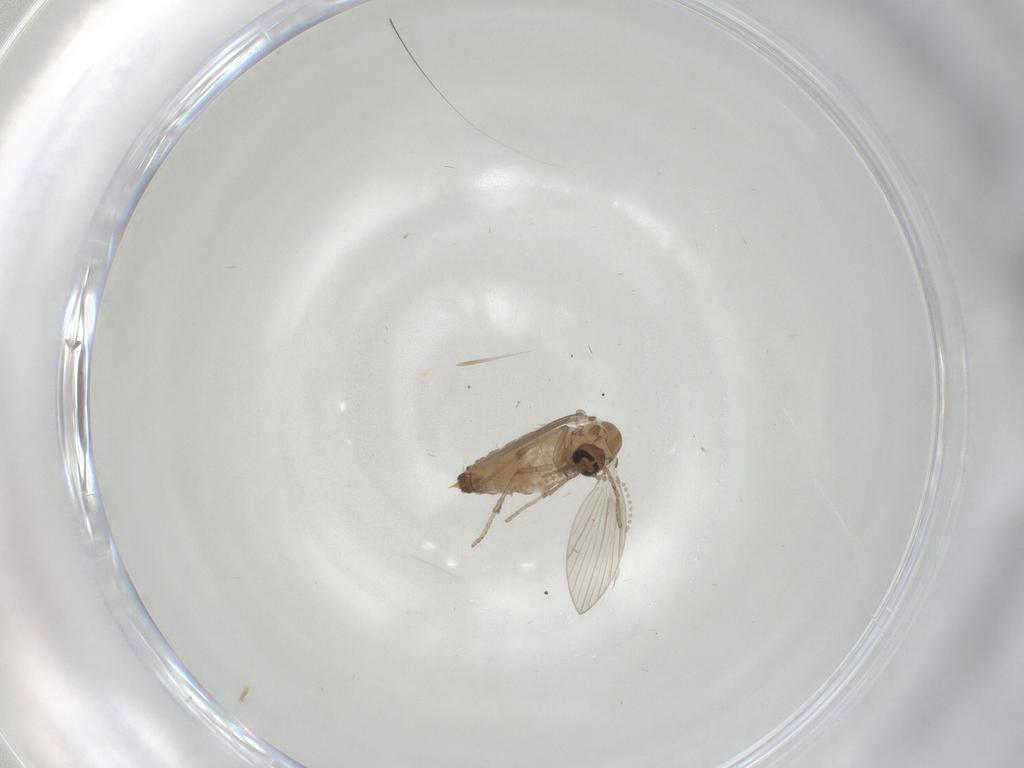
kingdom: Animalia
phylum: Arthropoda
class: Insecta
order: Diptera
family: Psychodidae
